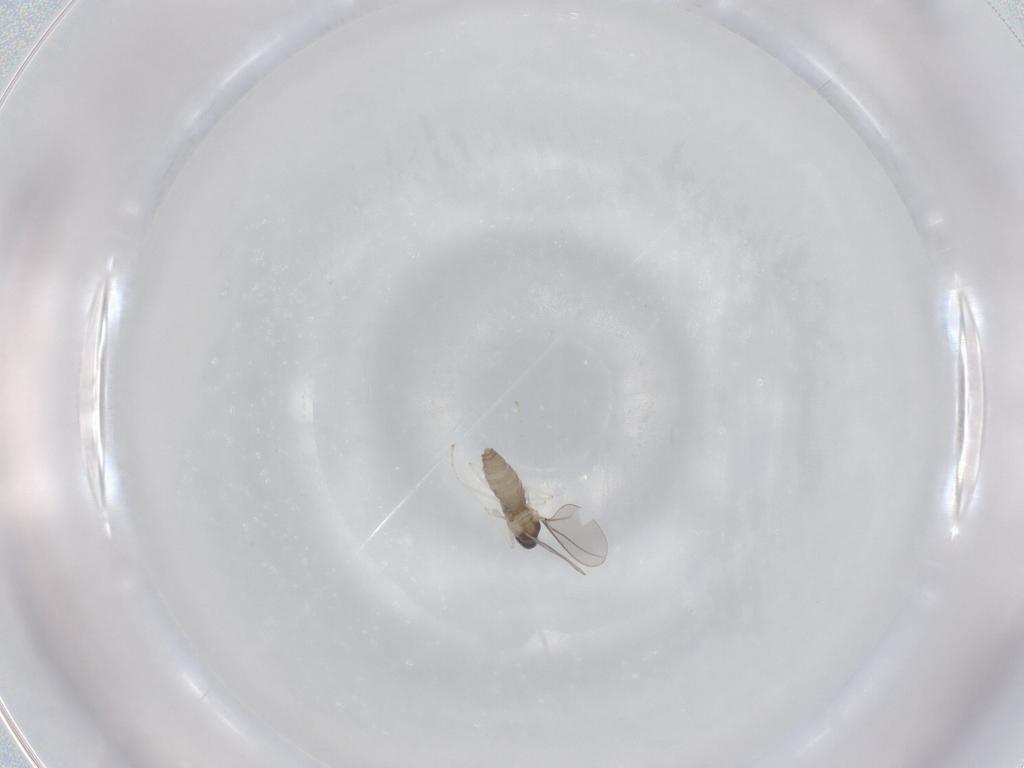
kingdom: Animalia
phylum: Arthropoda
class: Insecta
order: Diptera
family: Cecidomyiidae
